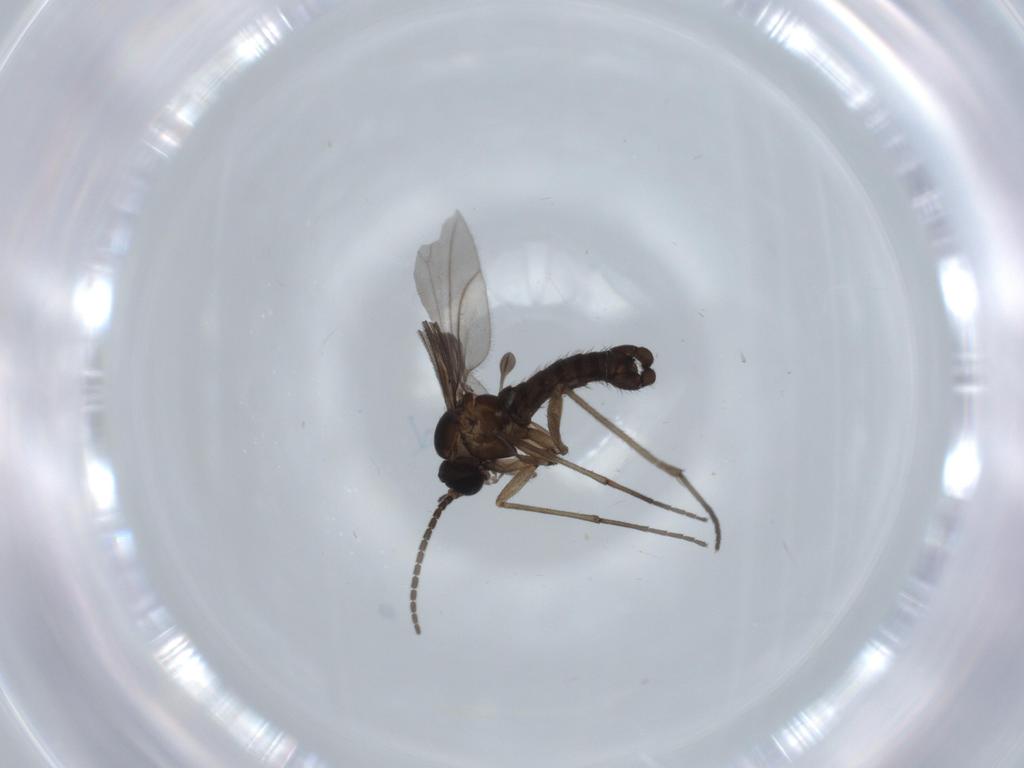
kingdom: Animalia
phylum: Arthropoda
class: Insecta
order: Diptera
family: Sciaridae
